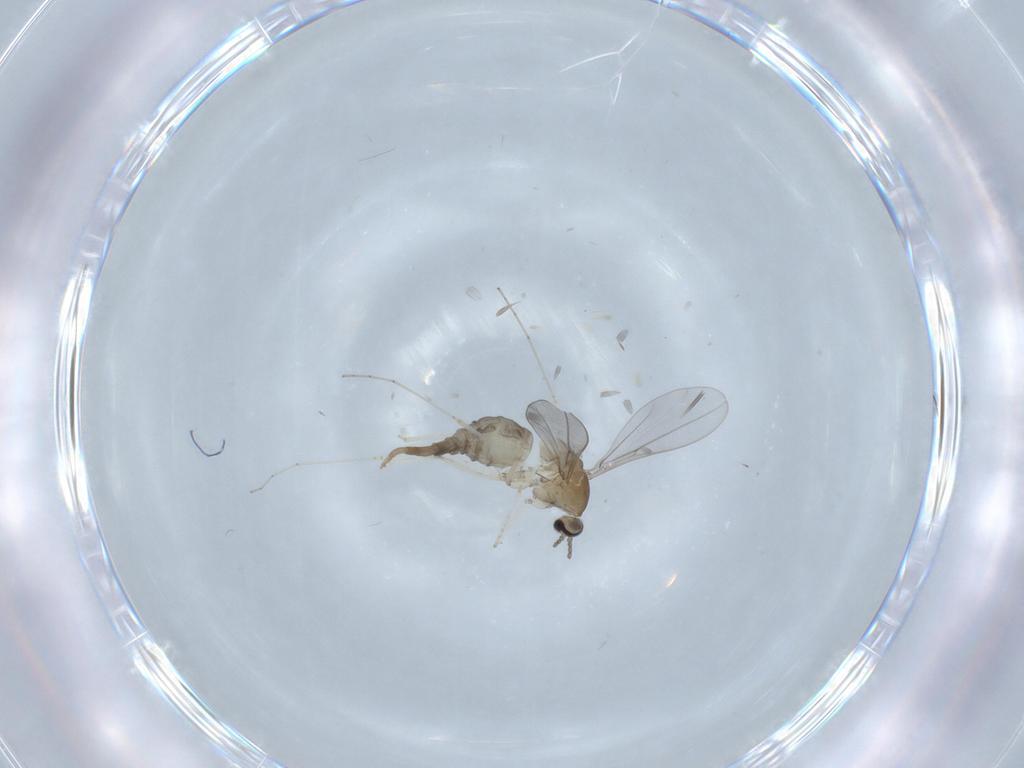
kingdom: Animalia
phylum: Arthropoda
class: Insecta
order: Diptera
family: Cecidomyiidae
